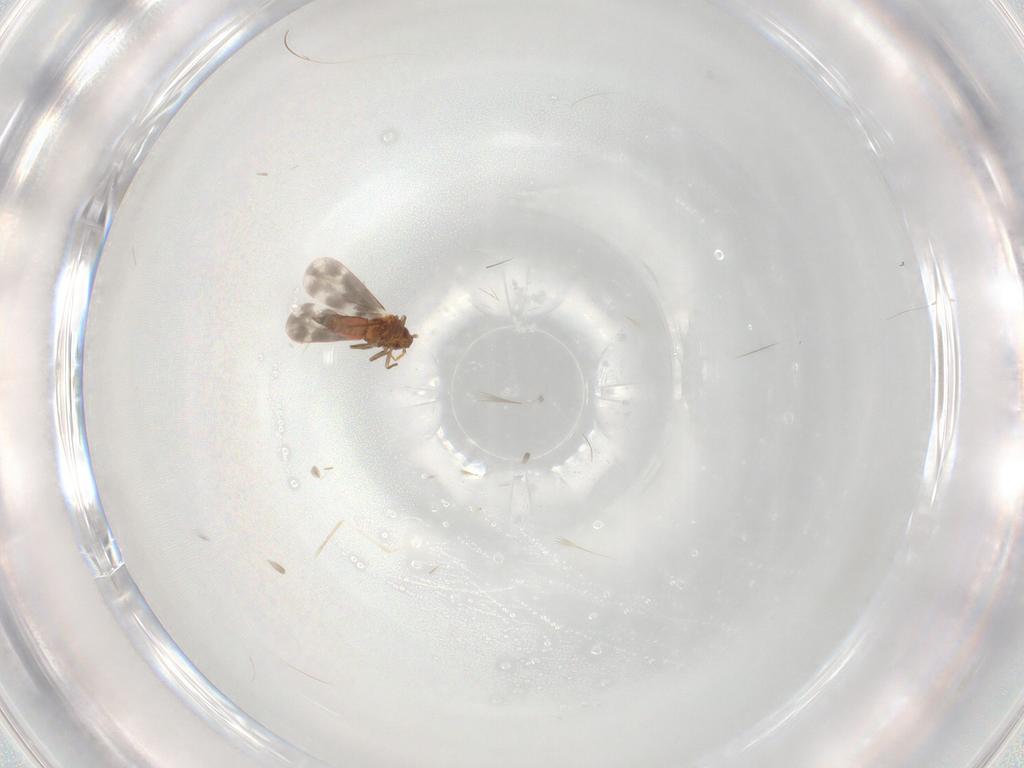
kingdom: Animalia
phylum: Arthropoda
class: Insecta
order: Hemiptera
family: Aleyrodidae
